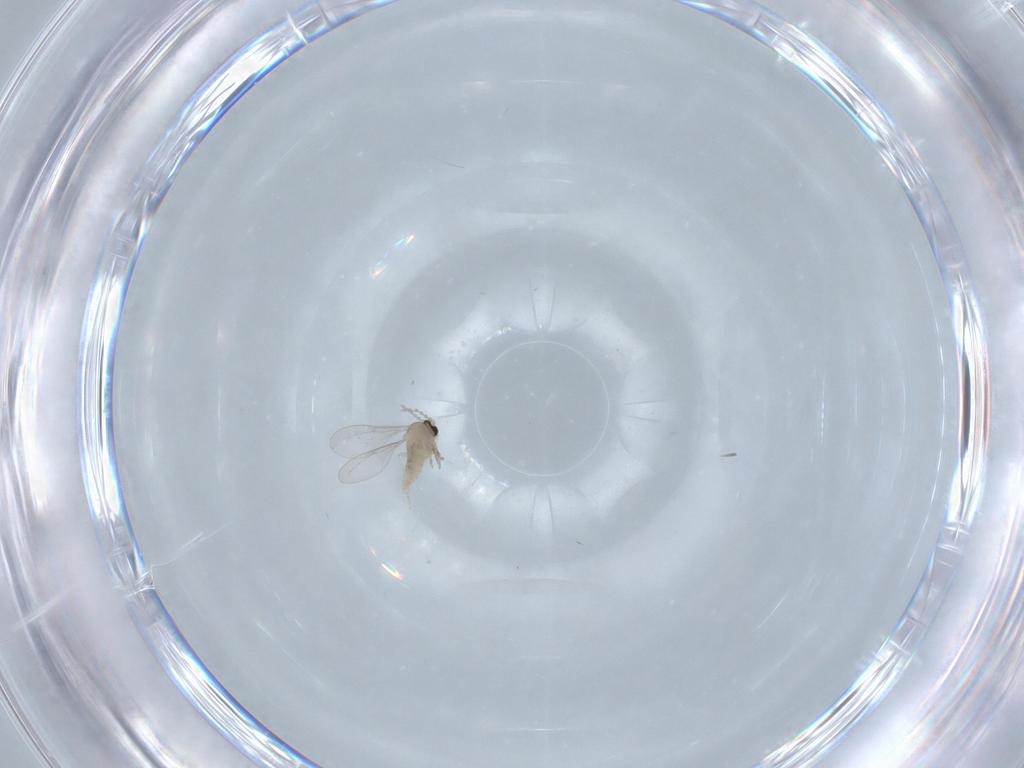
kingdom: Animalia
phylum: Arthropoda
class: Insecta
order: Diptera
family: Cecidomyiidae
